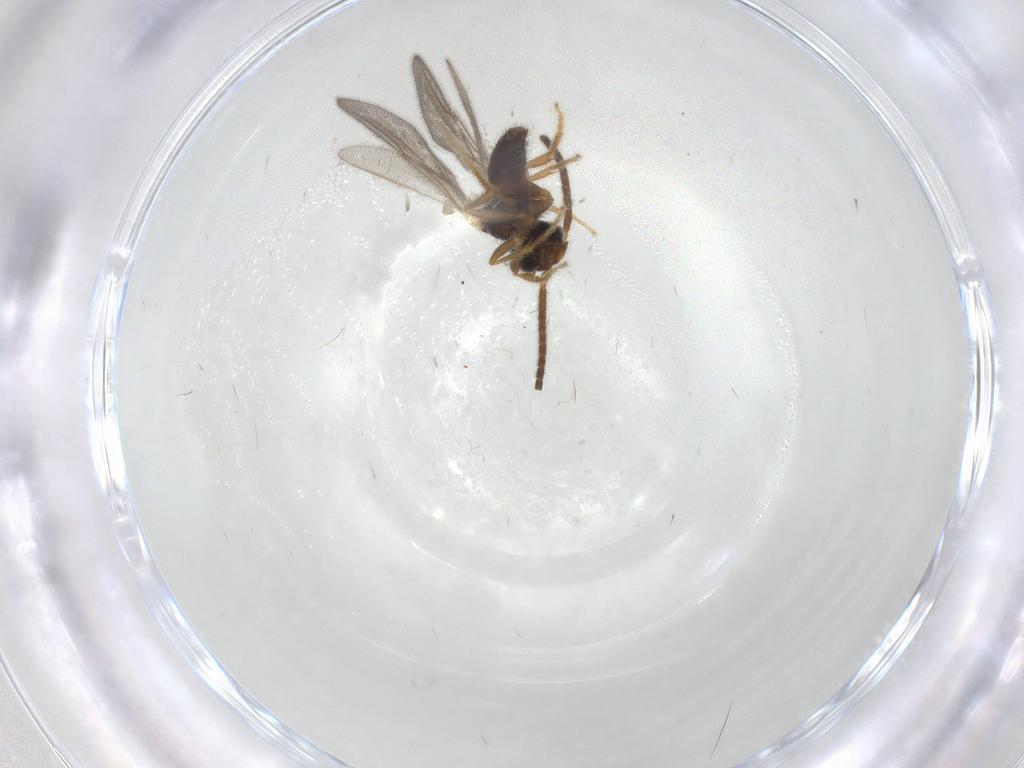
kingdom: Animalia
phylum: Arthropoda
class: Insecta
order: Hymenoptera
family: Bethylidae
